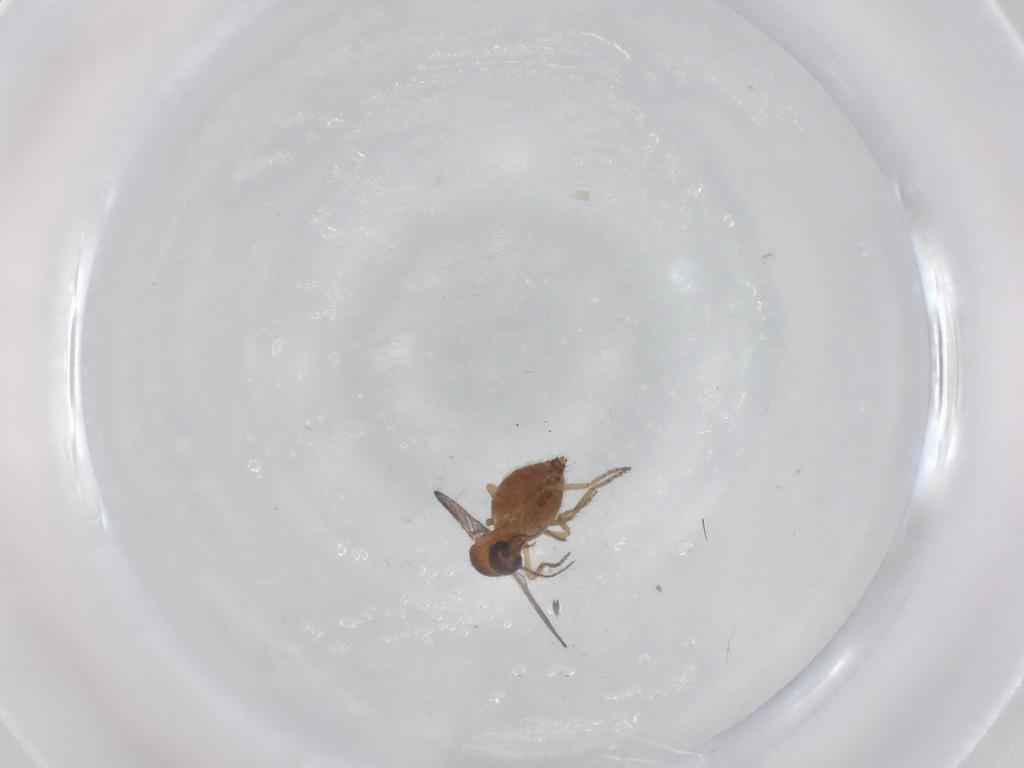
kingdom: Animalia
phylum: Arthropoda
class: Insecta
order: Diptera
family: Ceratopogonidae
